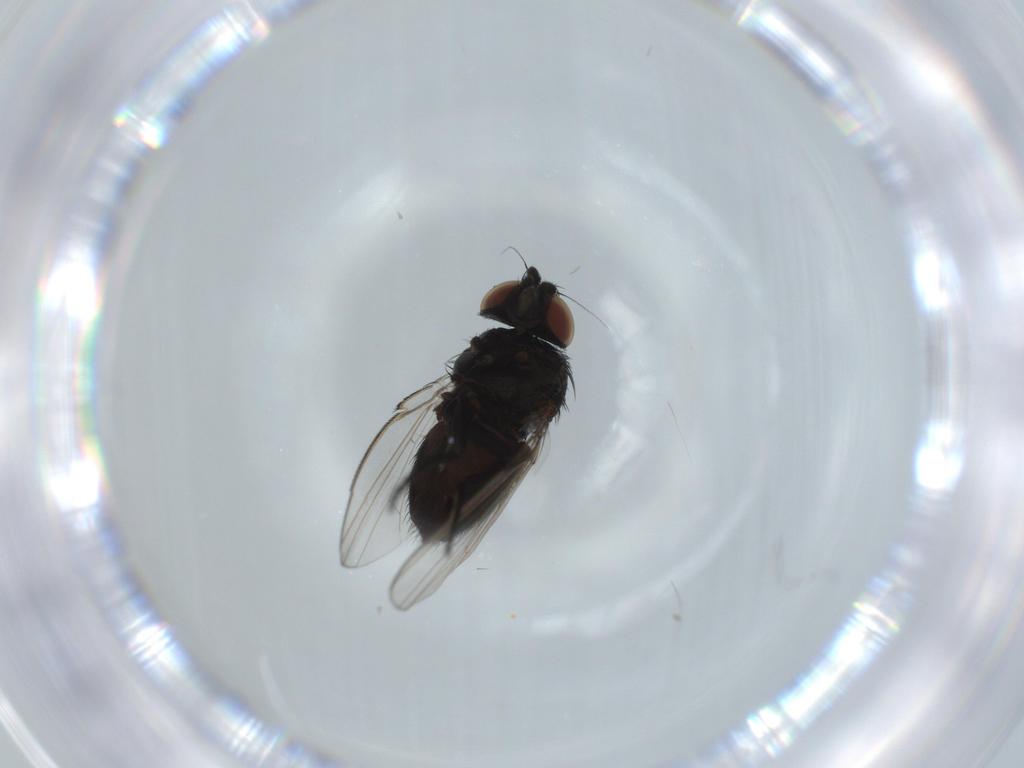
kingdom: Animalia
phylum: Arthropoda
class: Insecta
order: Diptera
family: Milichiidae
